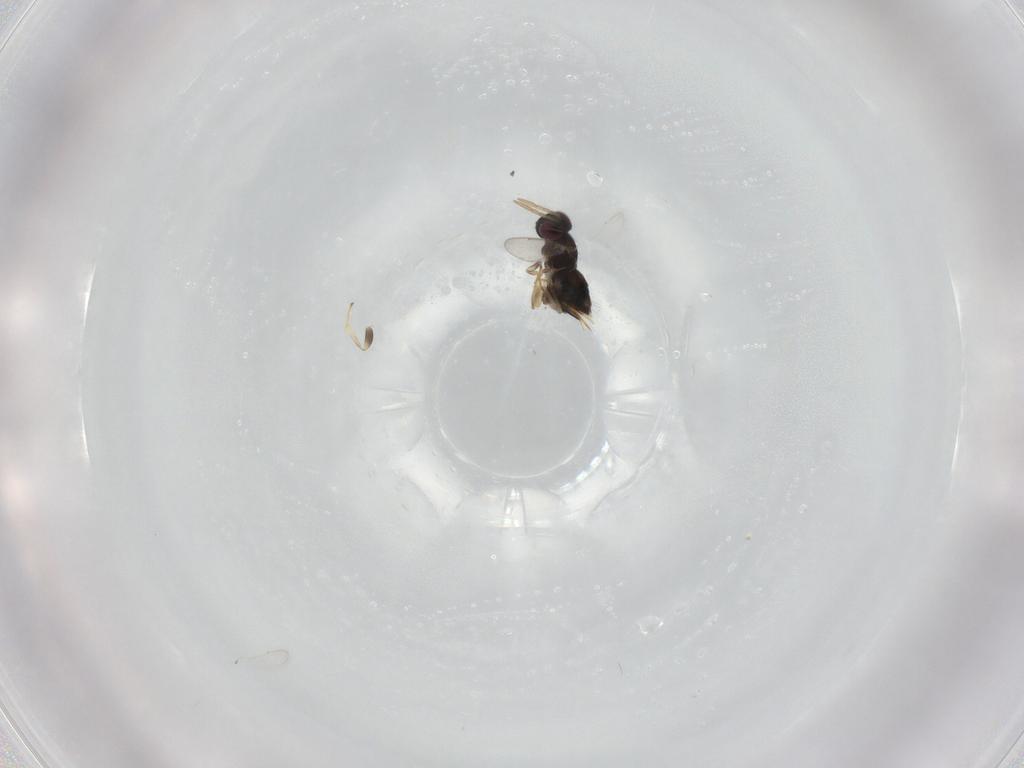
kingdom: Animalia
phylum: Arthropoda
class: Insecta
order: Hymenoptera
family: Aphelinidae
